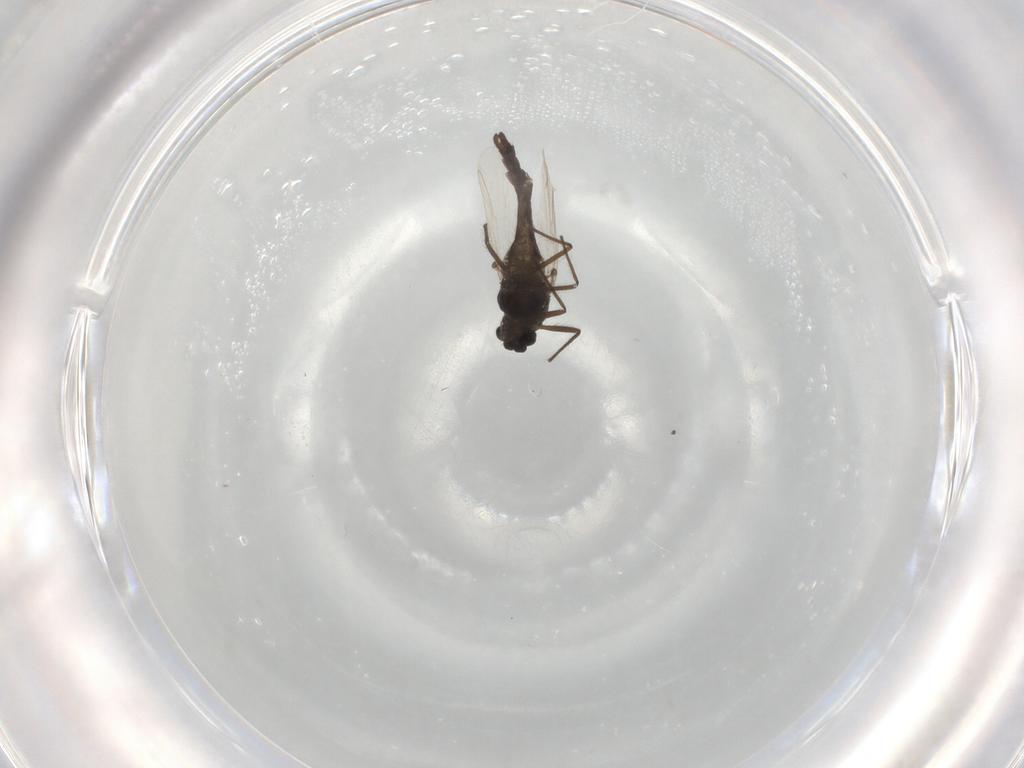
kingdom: Animalia
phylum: Arthropoda
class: Insecta
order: Diptera
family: Chironomidae
